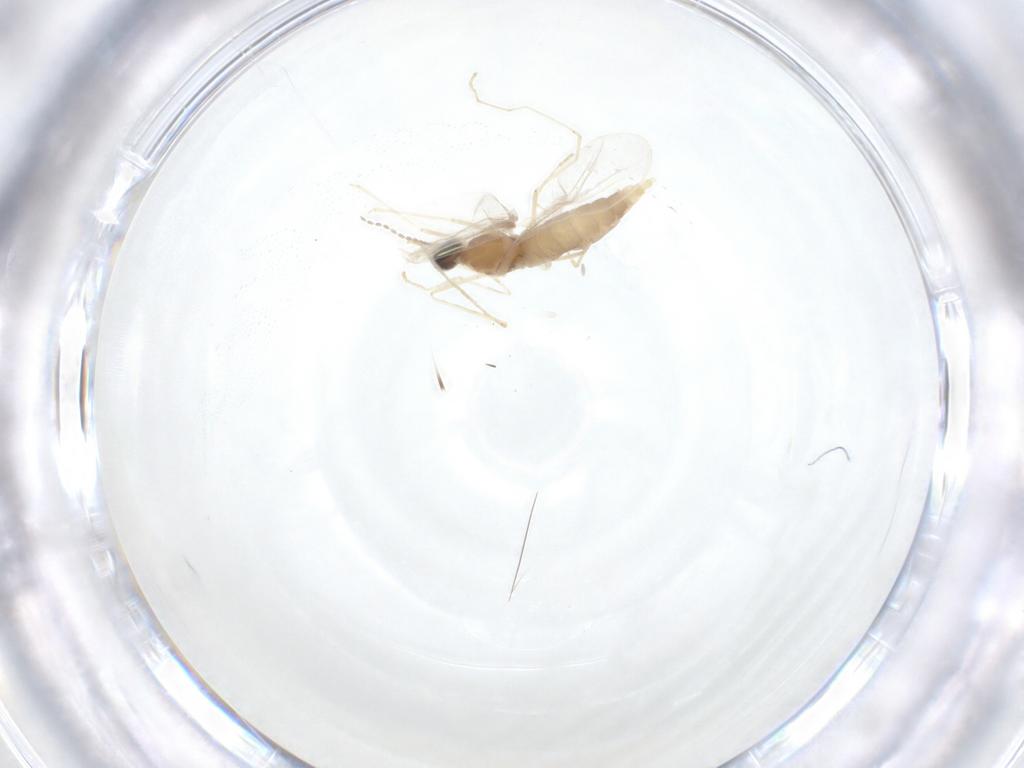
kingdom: Animalia
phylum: Arthropoda
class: Insecta
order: Diptera
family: Cecidomyiidae
